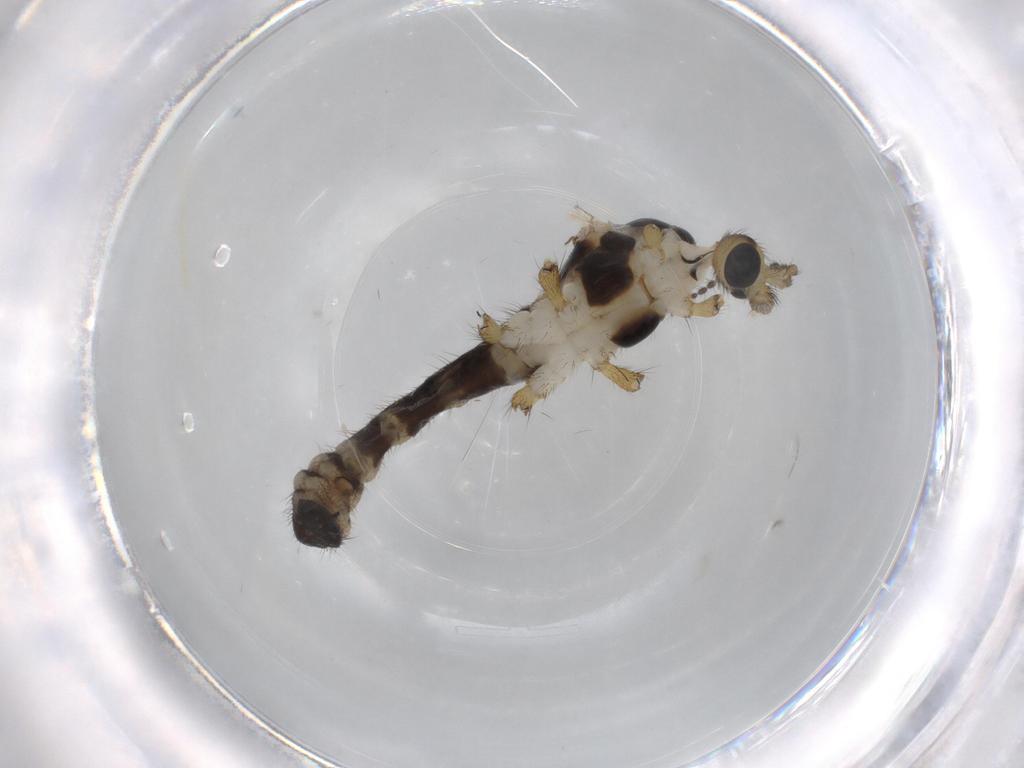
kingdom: Animalia
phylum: Arthropoda
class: Insecta
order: Diptera
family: Limoniidae
